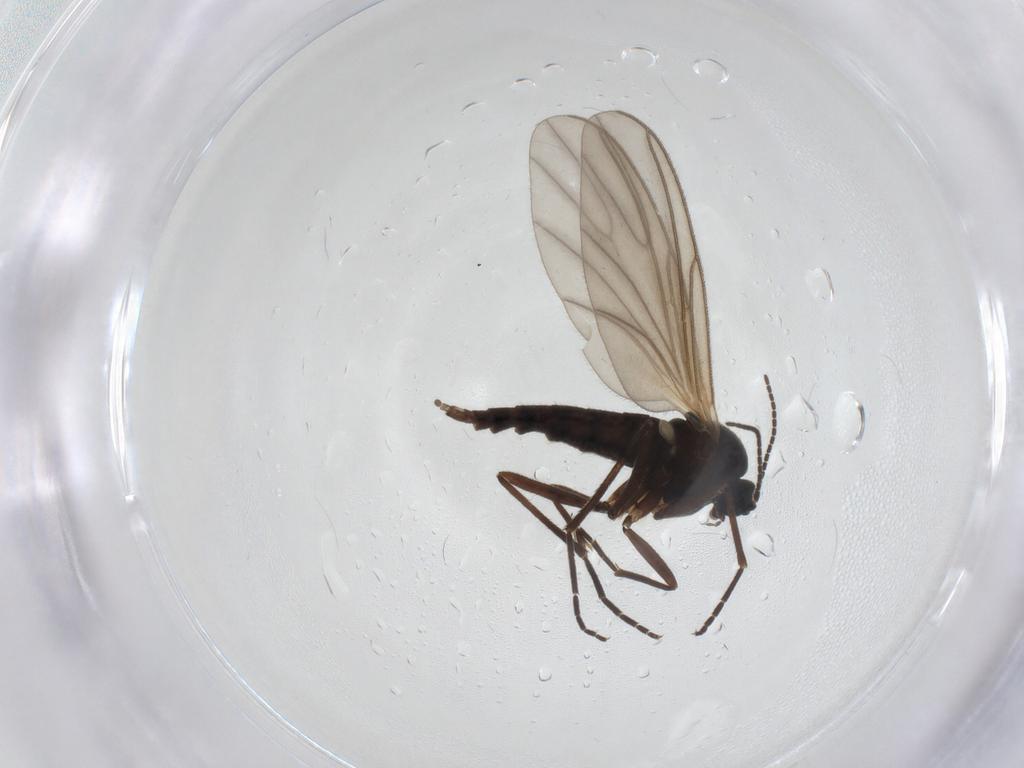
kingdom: Animalia
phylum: Arthropoda
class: Insecta
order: Diptera
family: Sciaridae
